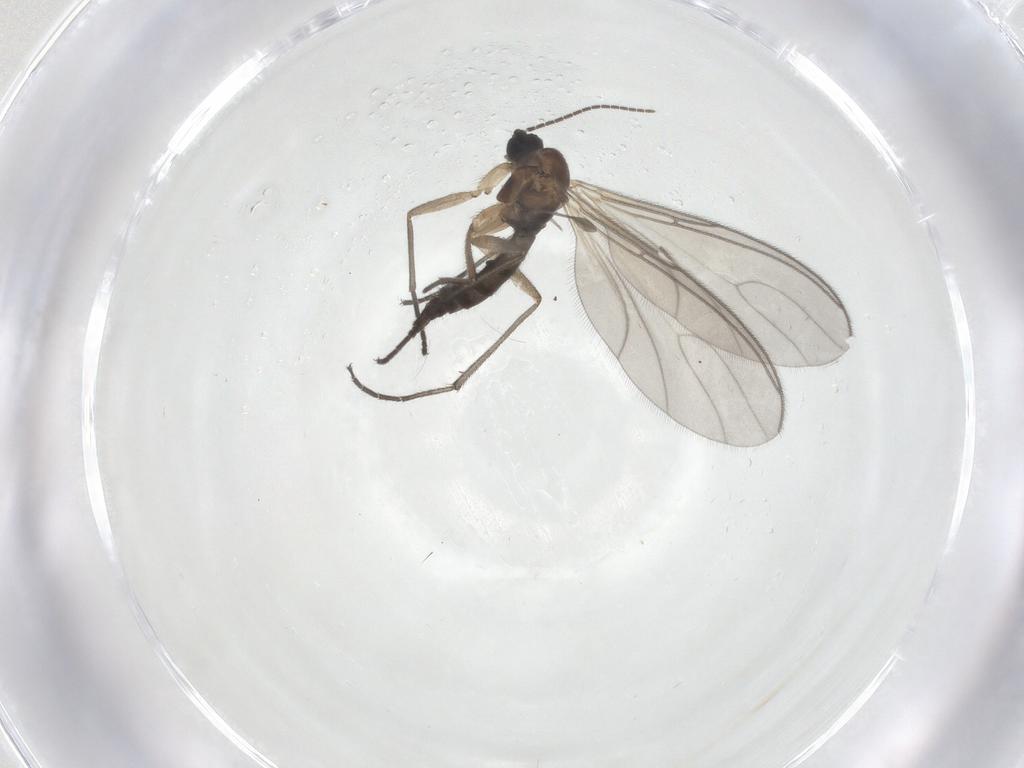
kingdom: Animalia
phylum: Arthropoda
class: Insecta
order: Diptera
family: Sciaridae
